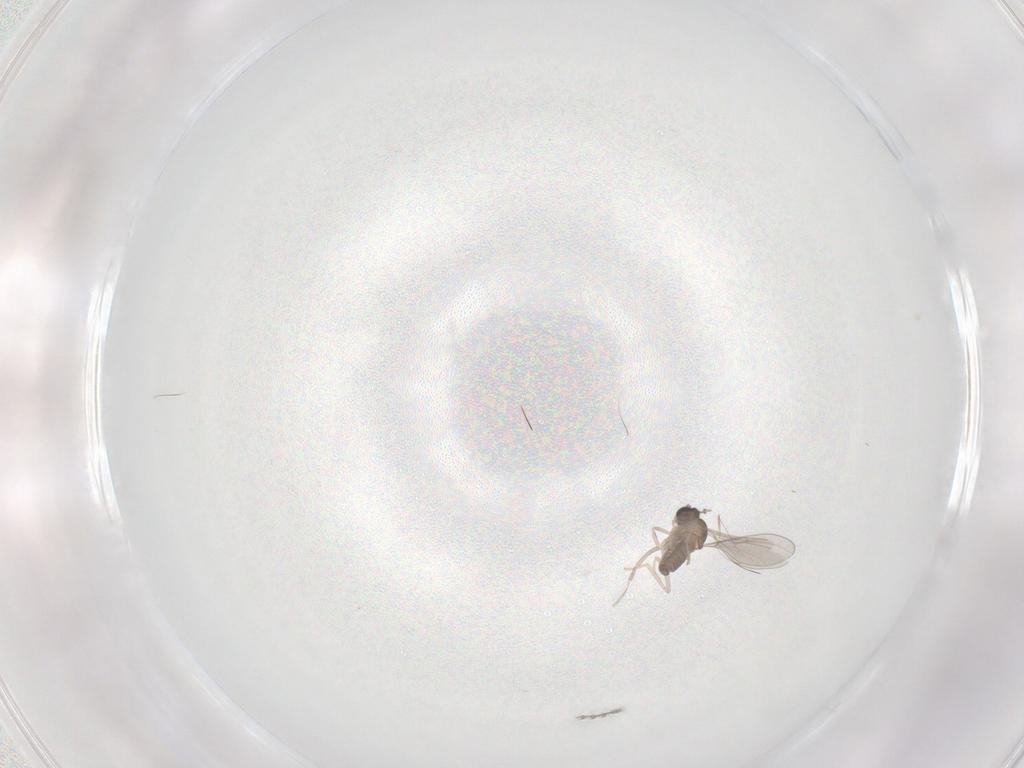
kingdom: Animalia
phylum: Arthropoda
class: Insecta
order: Diptera
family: Cecidomyiidae
